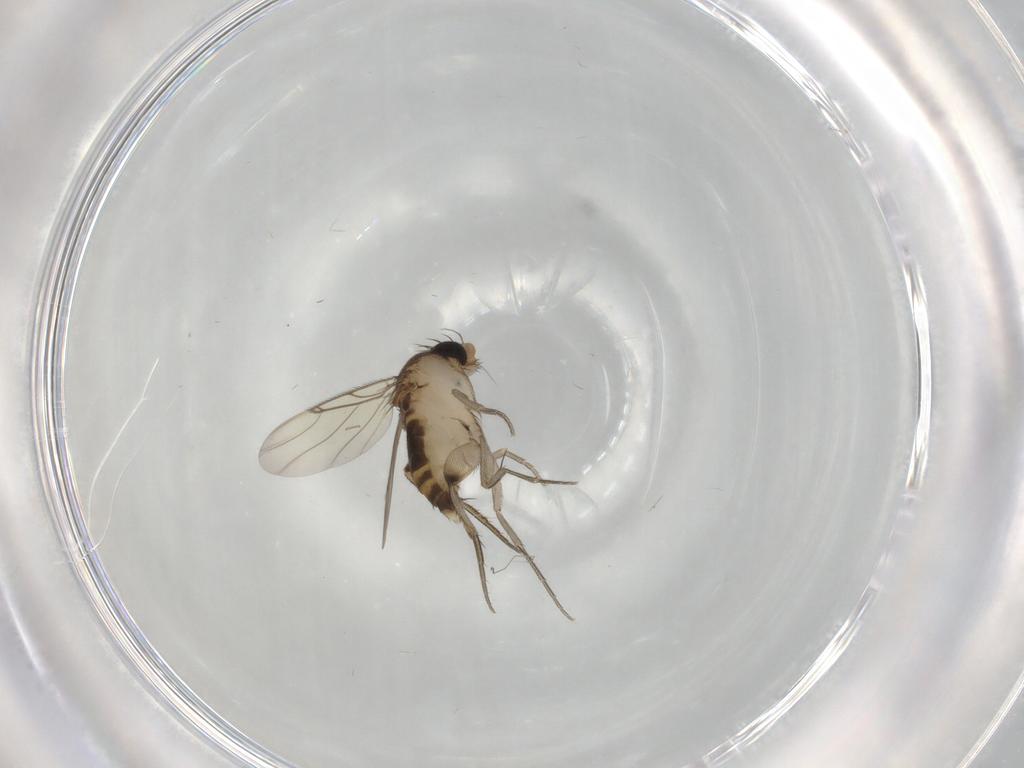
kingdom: Animalia
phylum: Arthropoda
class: Insecta
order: Diptera
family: Phoridae
